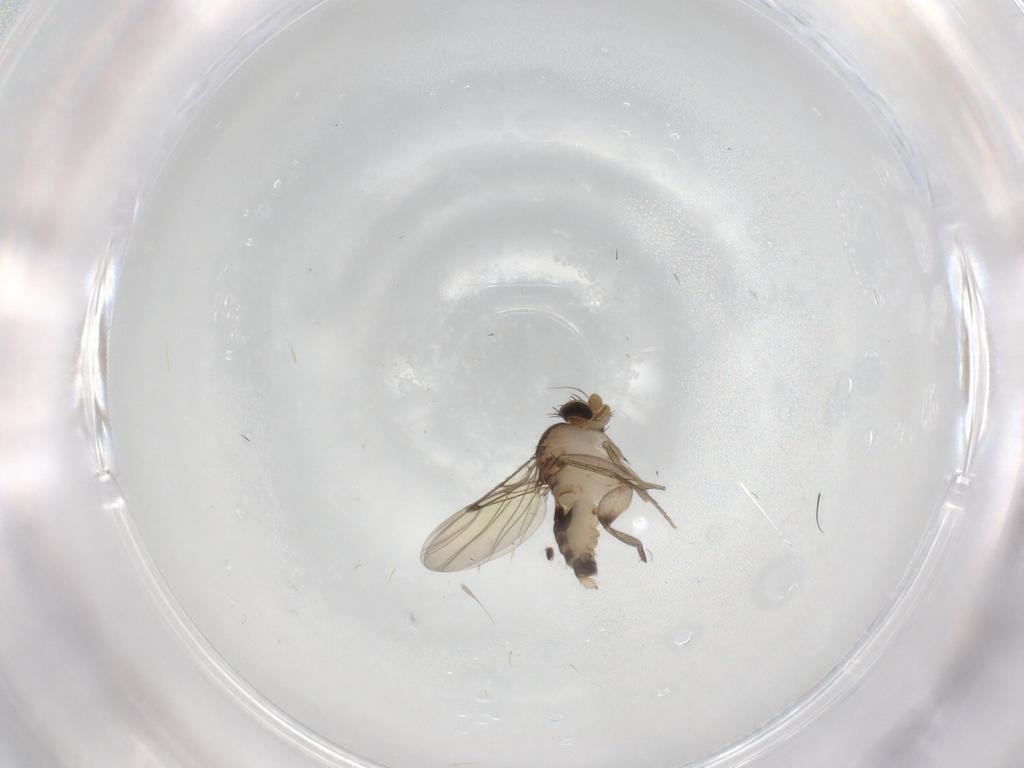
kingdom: Animalia
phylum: Arthropoda
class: Insecta
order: Diptera
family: Phoridae
